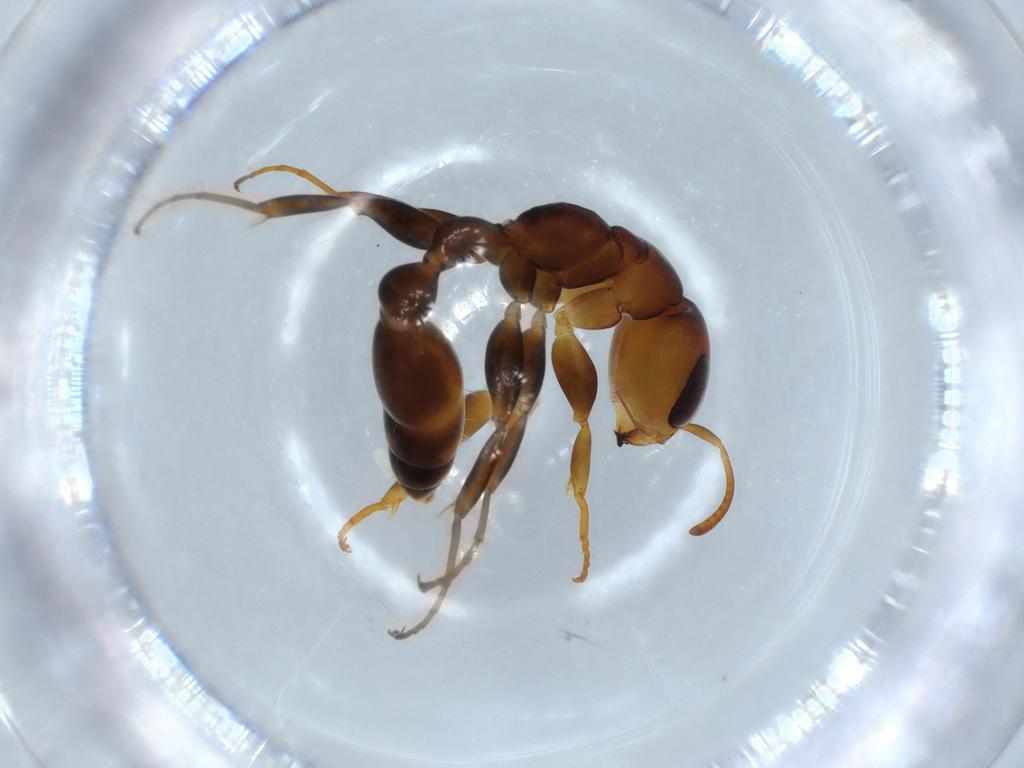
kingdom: Animalia
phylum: Arthropoda
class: Insecta
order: Hymenoptera
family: Formicidae
